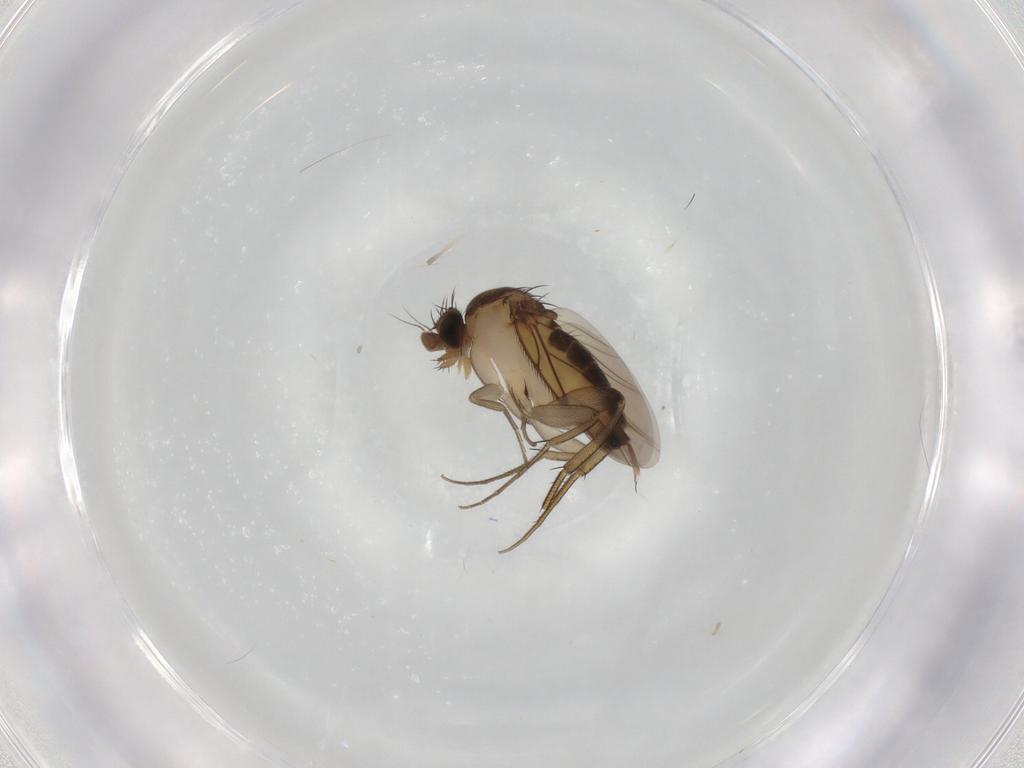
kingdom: Animalia
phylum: Arthropoda
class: Insecta
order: Diptera
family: Phoridae
